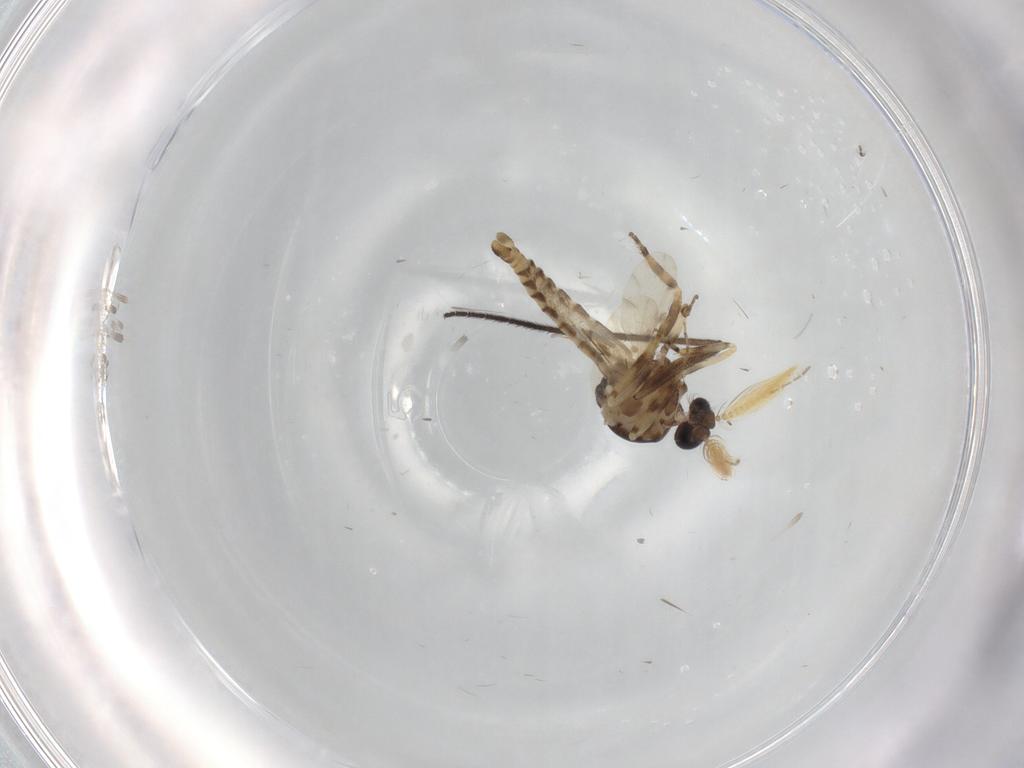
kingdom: Animalia
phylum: Arthropoda
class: Insecta
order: Diptera
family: Ceratopogonidae
